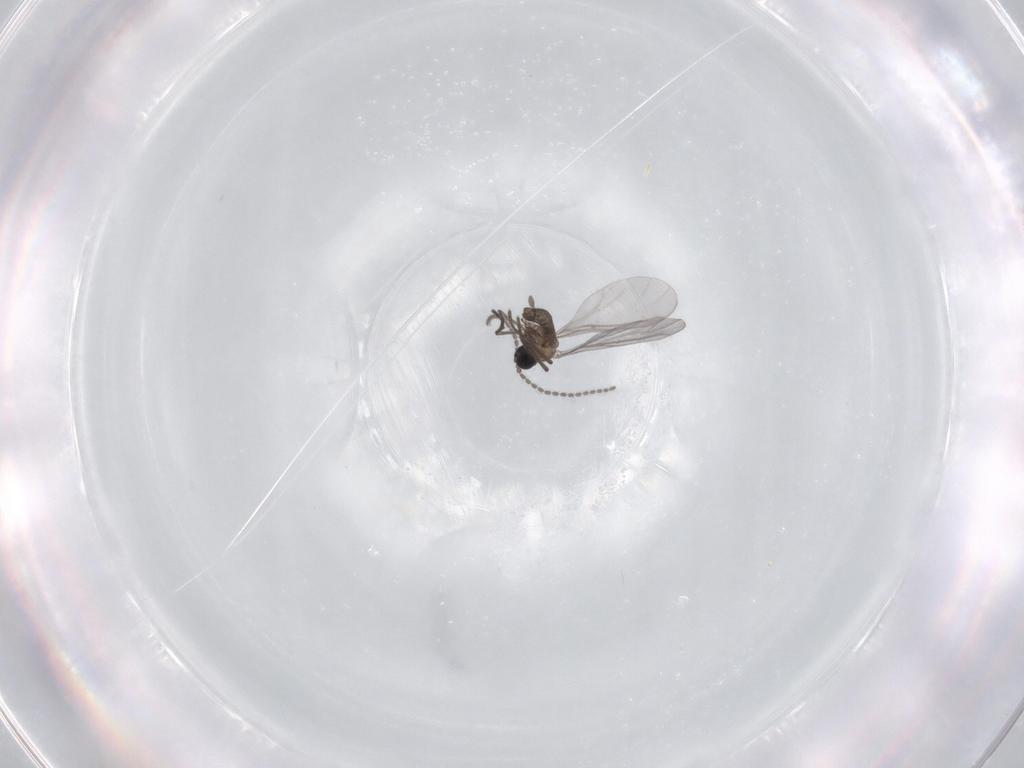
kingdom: Animalia
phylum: Arthropoda
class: Insecta
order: Diptera
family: Sciaridae
